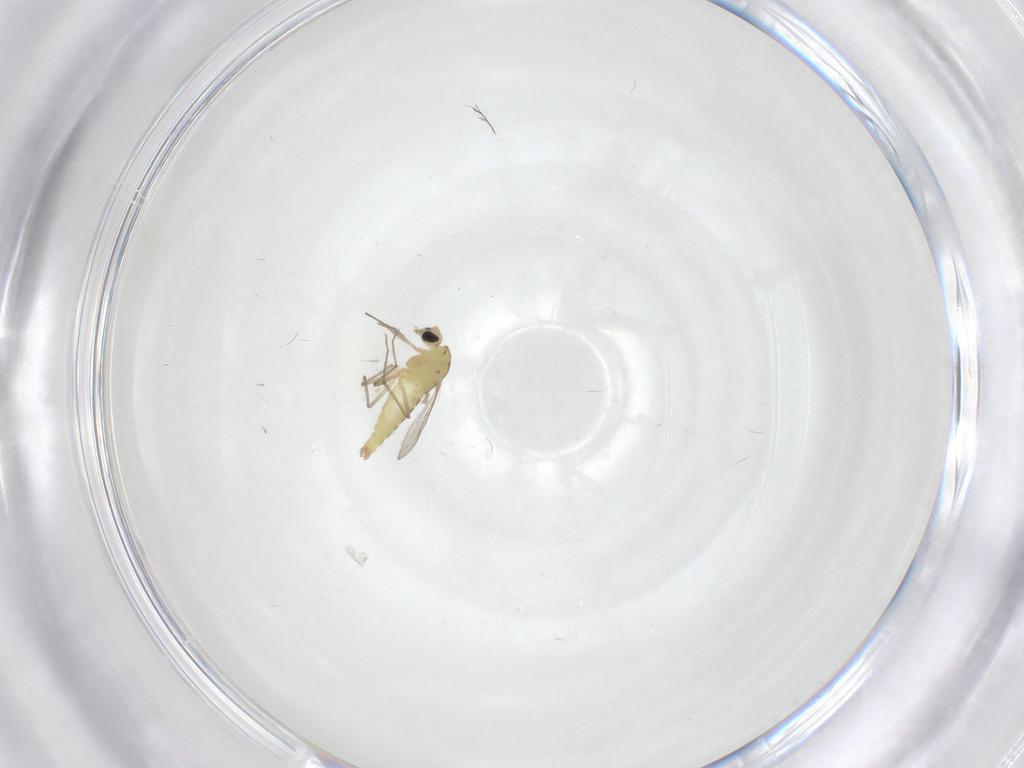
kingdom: Animalia
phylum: Arthropoda
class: Insecta
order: Diptera
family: Chironomidae
